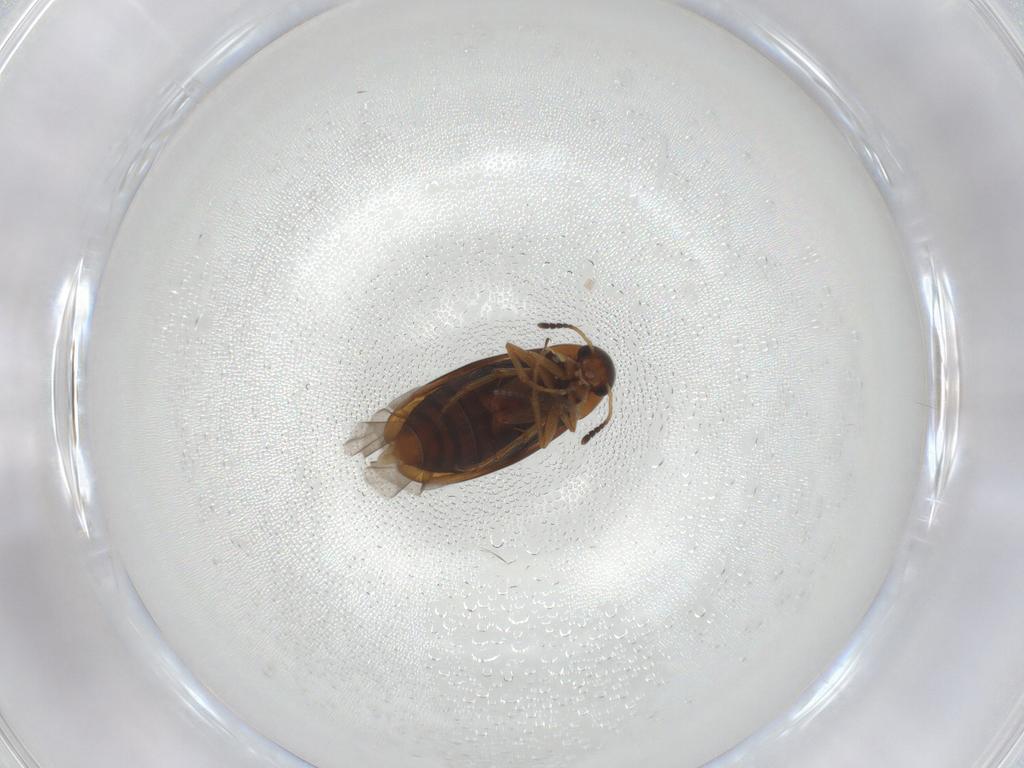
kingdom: Animalia
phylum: Arthropoda
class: Insecta
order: Coleoptera
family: Scraptiidae
